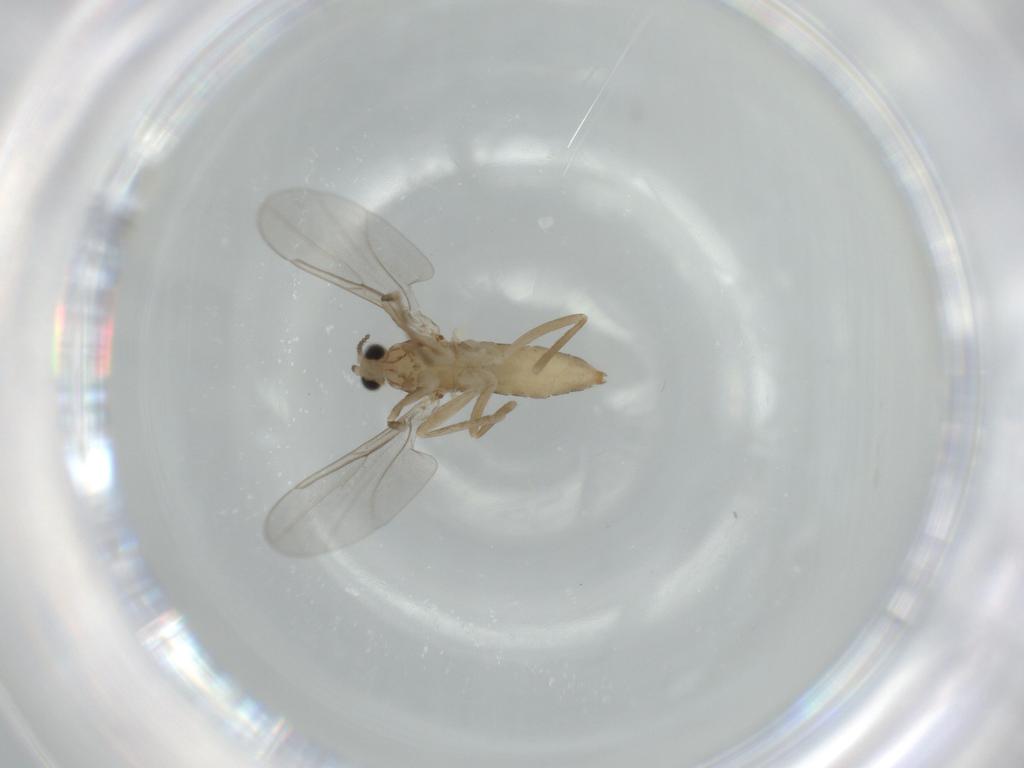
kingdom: Animalia
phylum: Arthropoda
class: Insecta
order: Diptera
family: Cecidomyiidae
